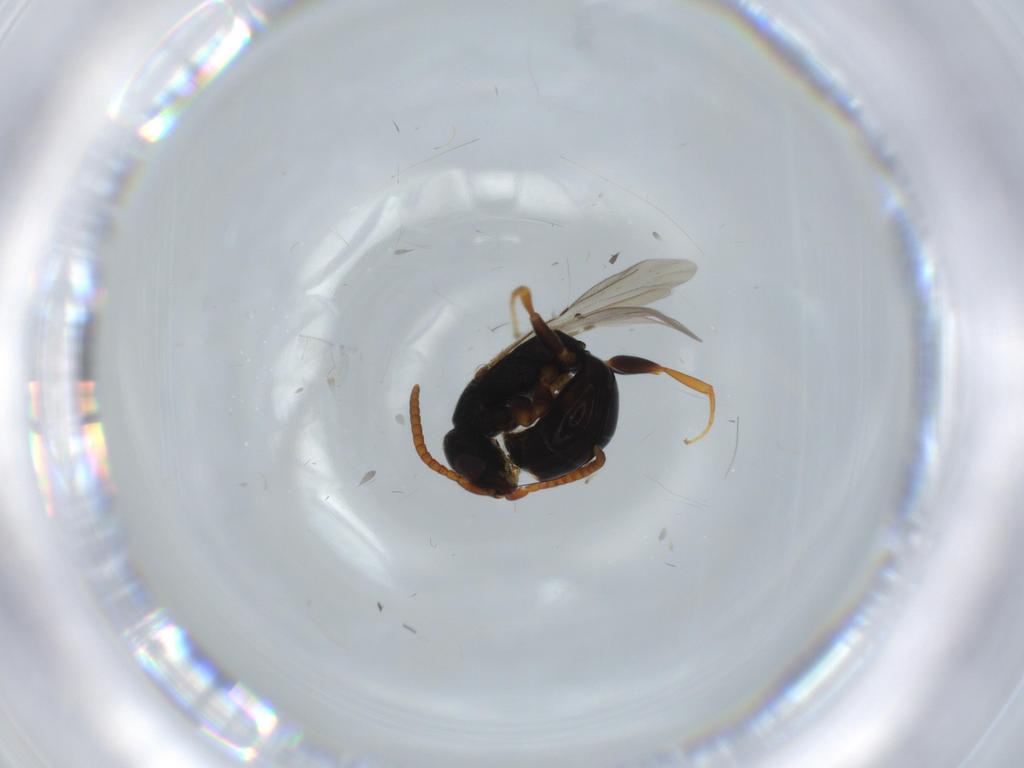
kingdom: Animalia
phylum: Arthropoda
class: Insecta
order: Hymenoptera
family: Bethylidae
